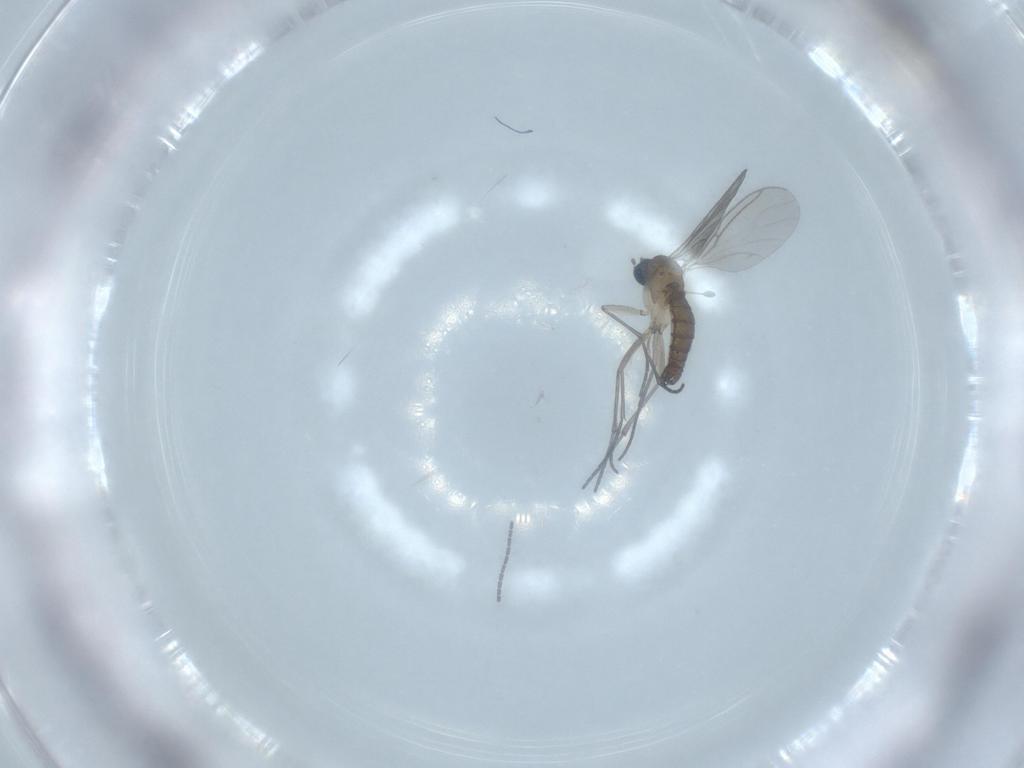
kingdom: Animalia
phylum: Arthropoda
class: Insecta
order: Diptera
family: Sciaridae
